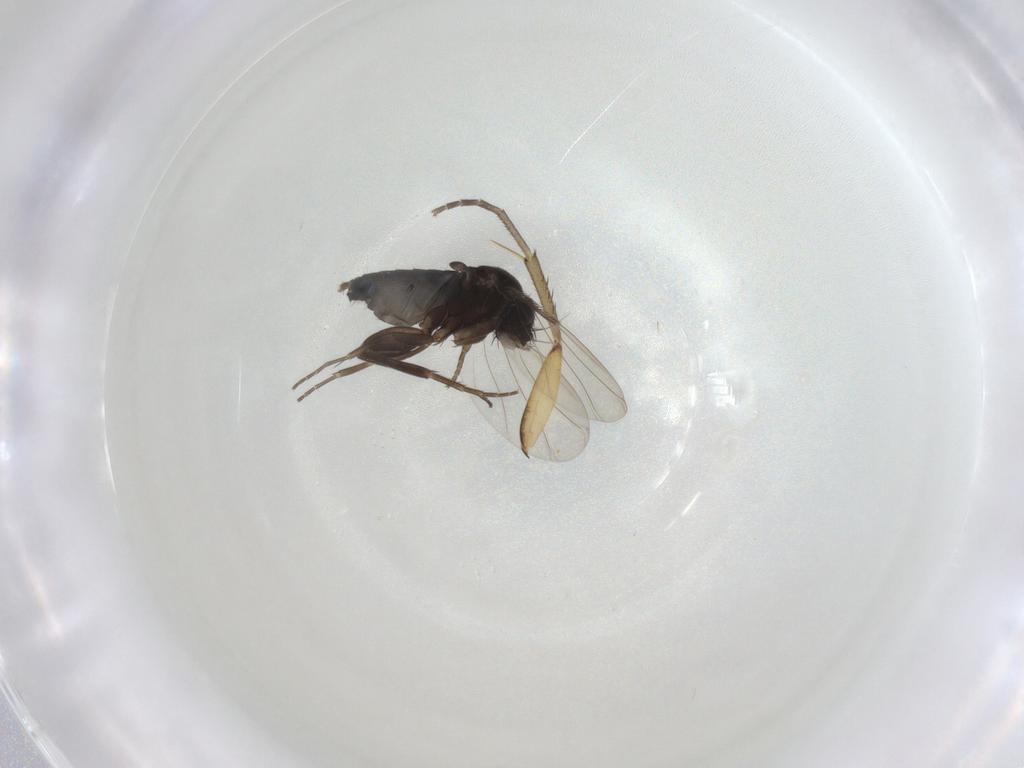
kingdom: Animalia
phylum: Arthropoda
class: Insecta
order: Diptera
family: Phoridae
